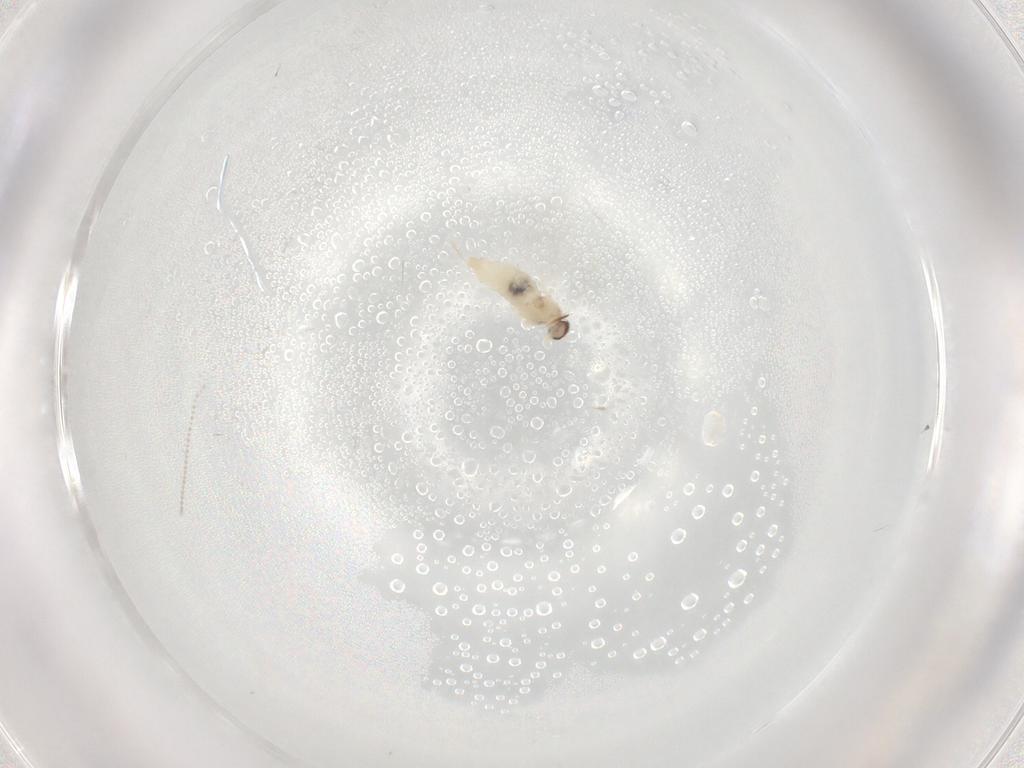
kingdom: Animalia
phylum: Arthropoda
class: Insecta
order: Diptera
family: Cecidomyiidae
